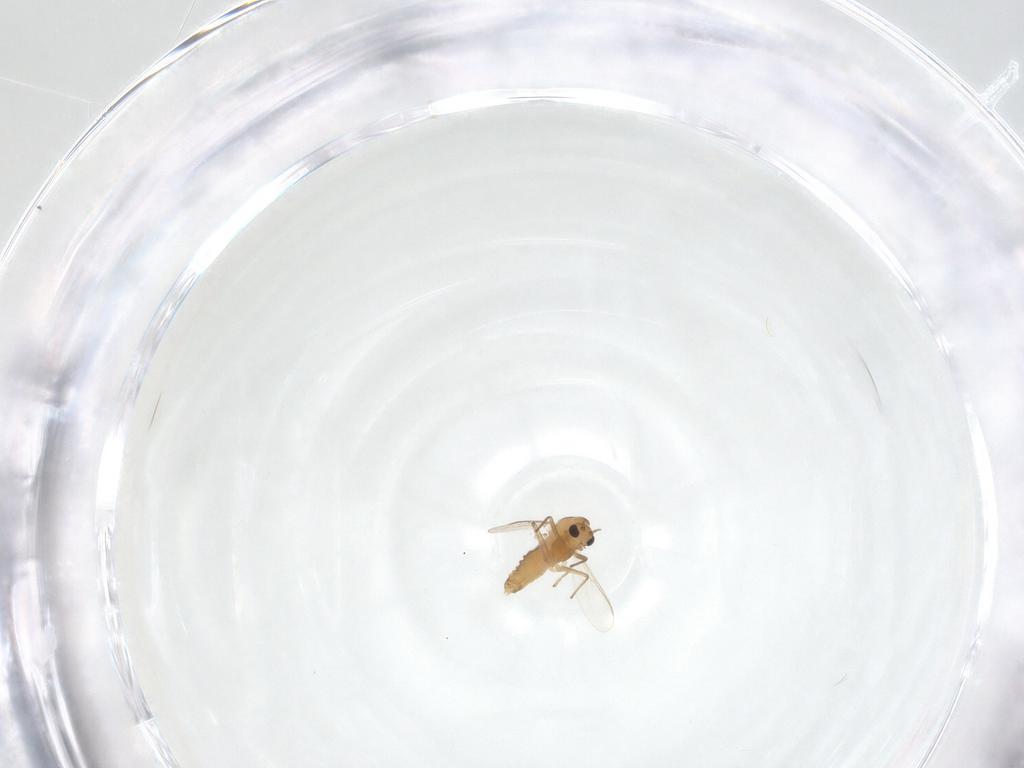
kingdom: Animalia
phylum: Arthropoda
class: Insecta
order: Diptera
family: Chironomidae
